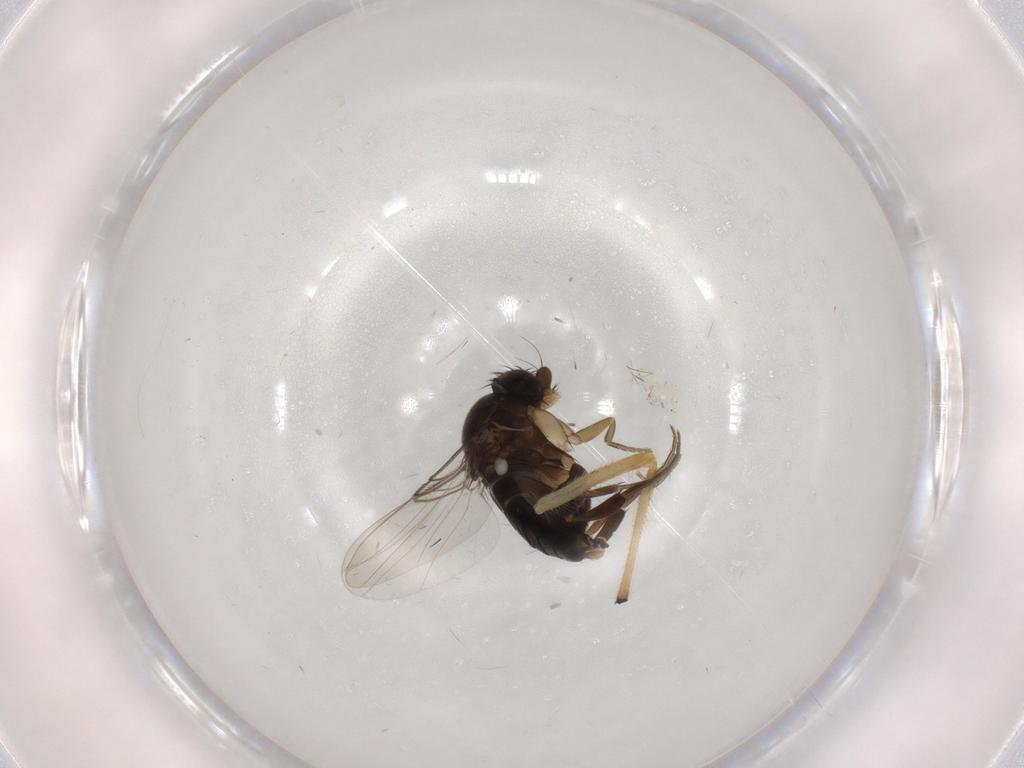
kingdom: Animalia
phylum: Arthropoda
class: Insecta
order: Diptera
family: Phoridae
